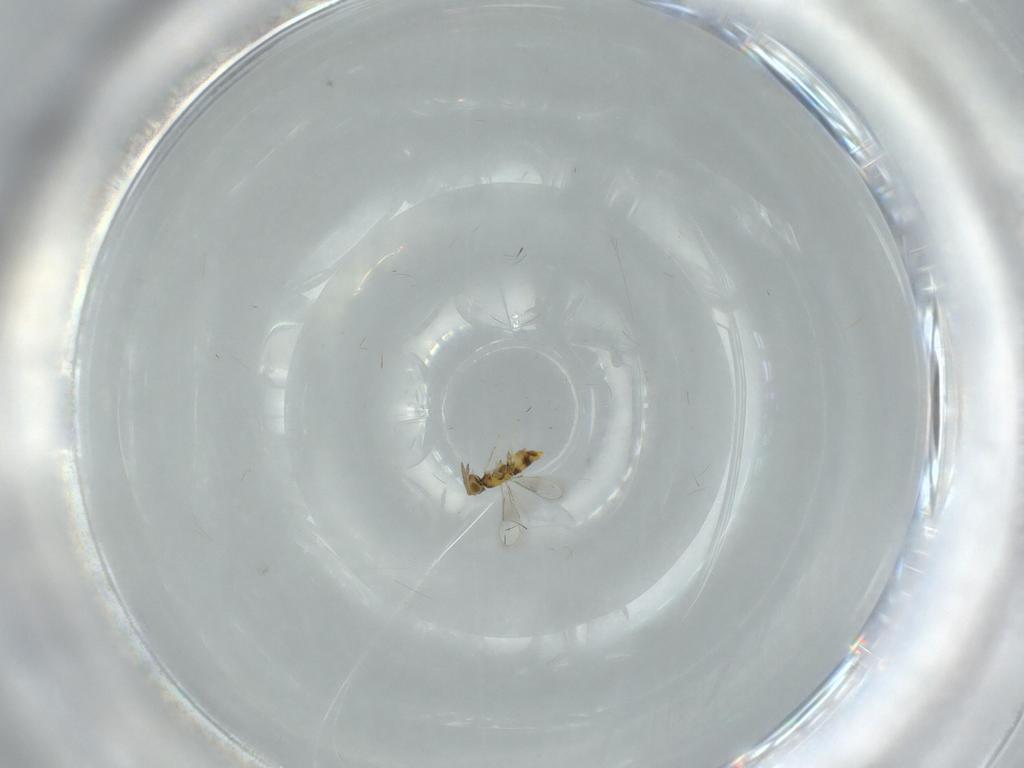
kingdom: Animalia
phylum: Arthropoda
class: Insecta
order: Hymenoptera
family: Aphelinidae
